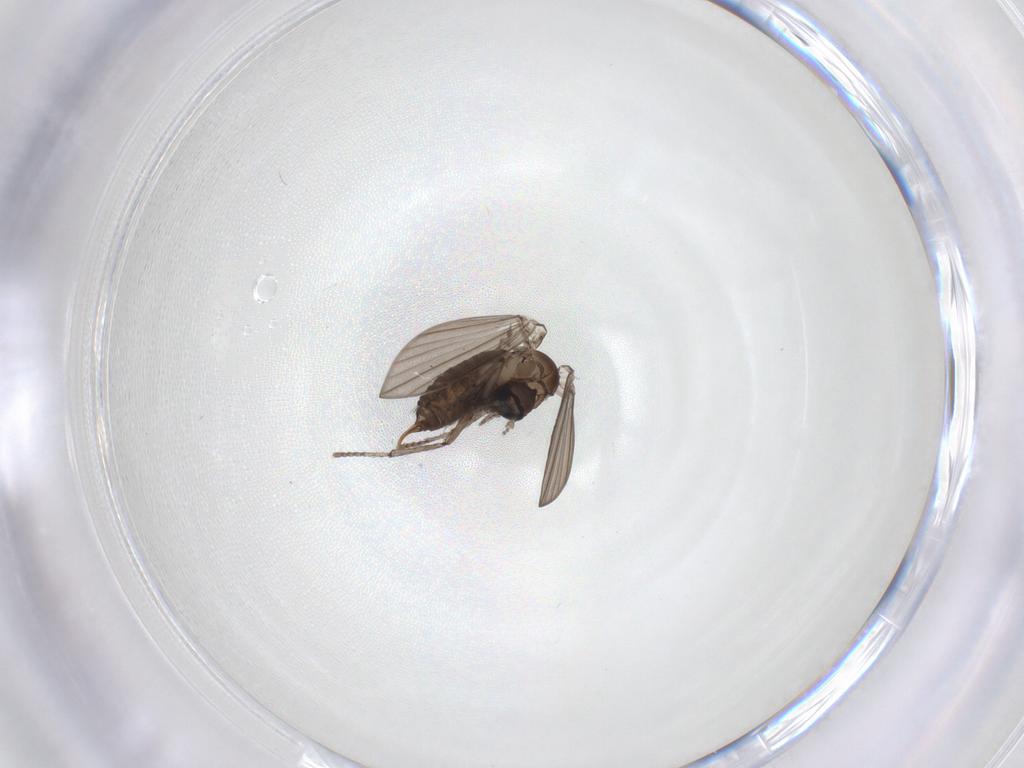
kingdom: Animalia
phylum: Arthropoda
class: Insecta
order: Diptera
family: Psychodidae
